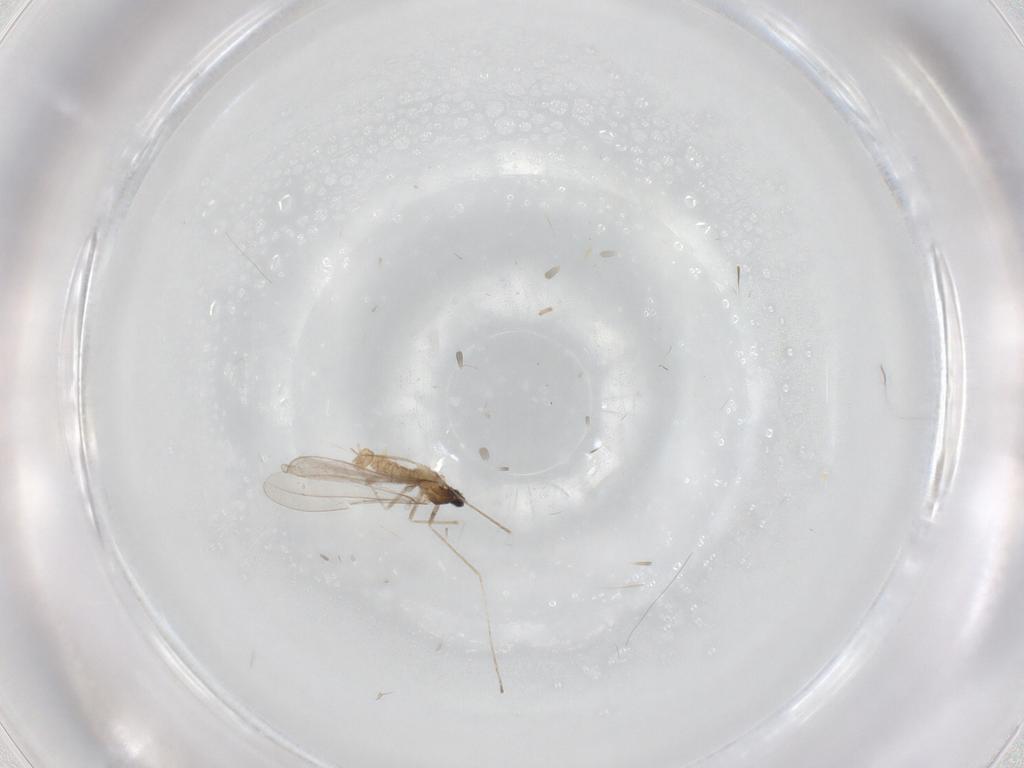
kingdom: Animalia
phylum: Arthropoda
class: Insecta
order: Diptera
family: Cecidomyiidae
